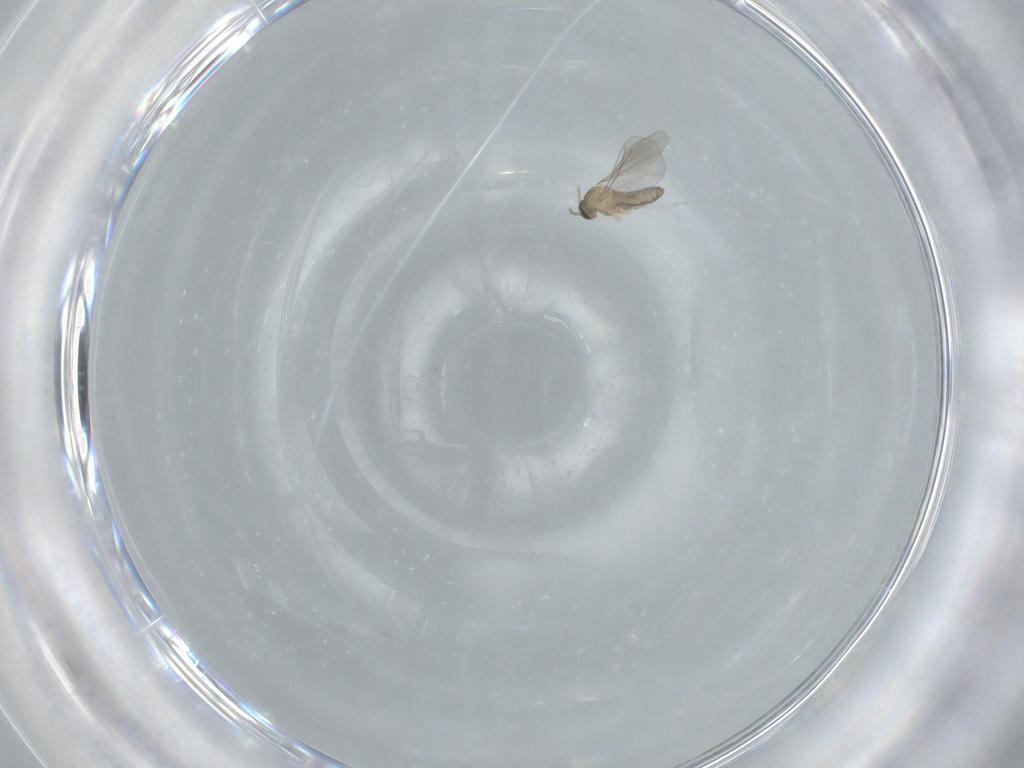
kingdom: Animalia
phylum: Arthropoda
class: Insecta
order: Diptera
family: Phoridae
